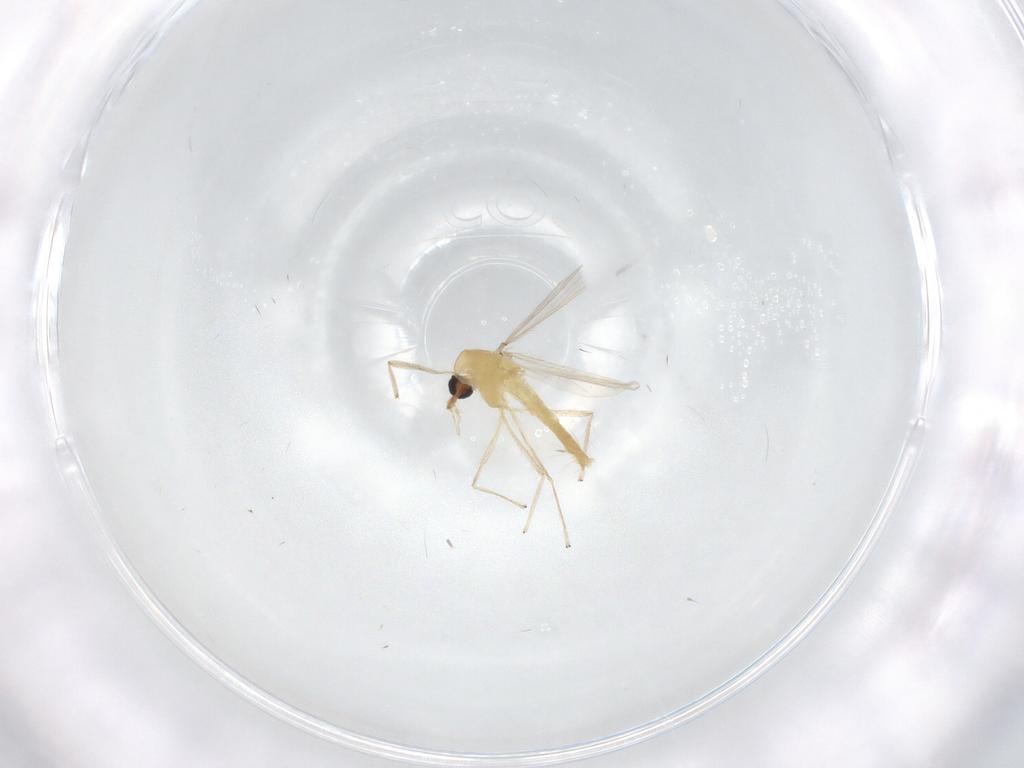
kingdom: Animalia
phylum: Arthropoda
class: Insecta
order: Diptera
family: Chironomidae
